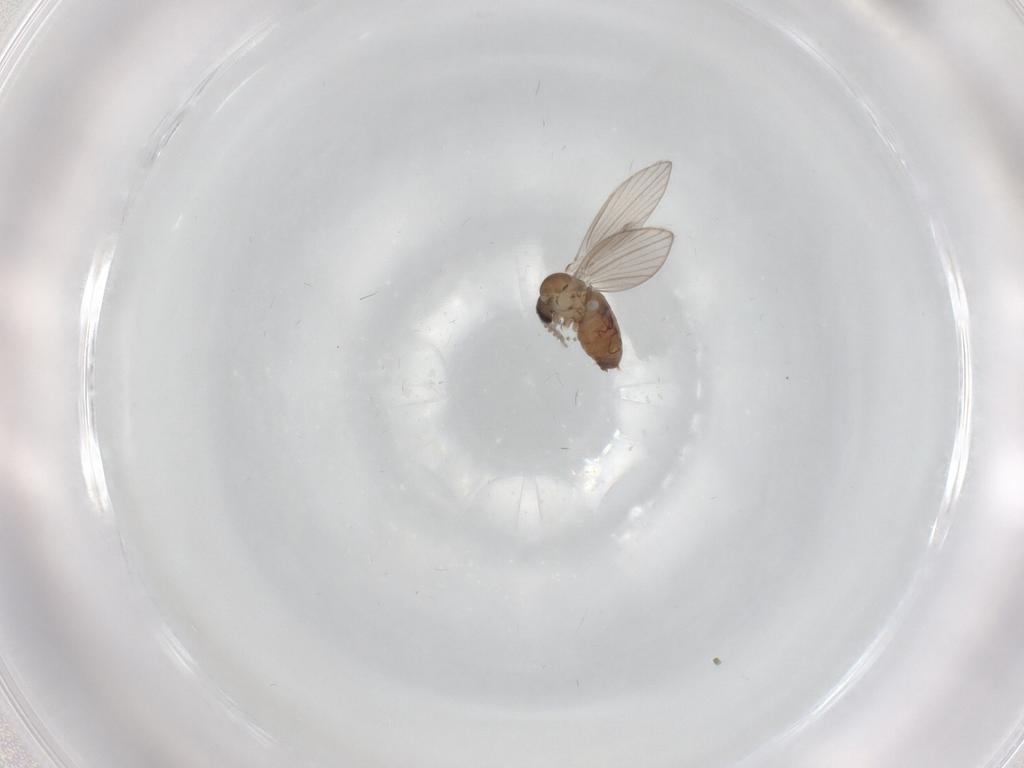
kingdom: Animalia
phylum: Arthropoda
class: Insecta
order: Diptera
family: Psychodidae
